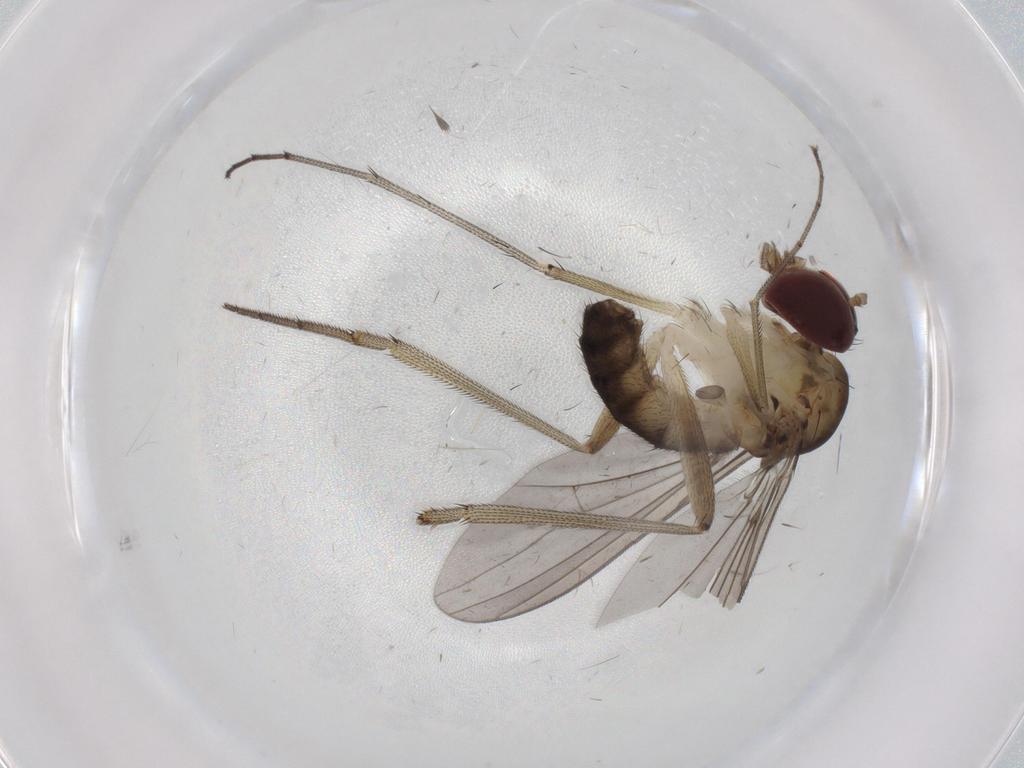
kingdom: Animalia
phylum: Arthropoda
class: Insecta
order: Diptera
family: Dolichopodidae
